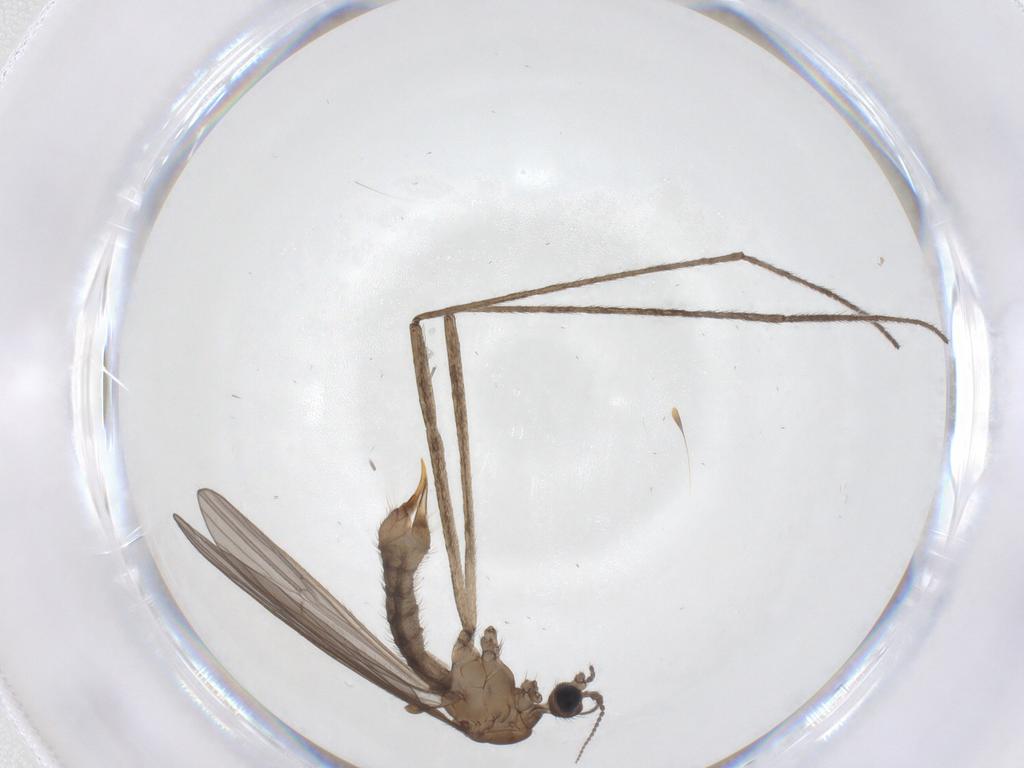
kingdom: Animalia
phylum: Arthropoda
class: Insecta
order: Diptera
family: Limoniidae
